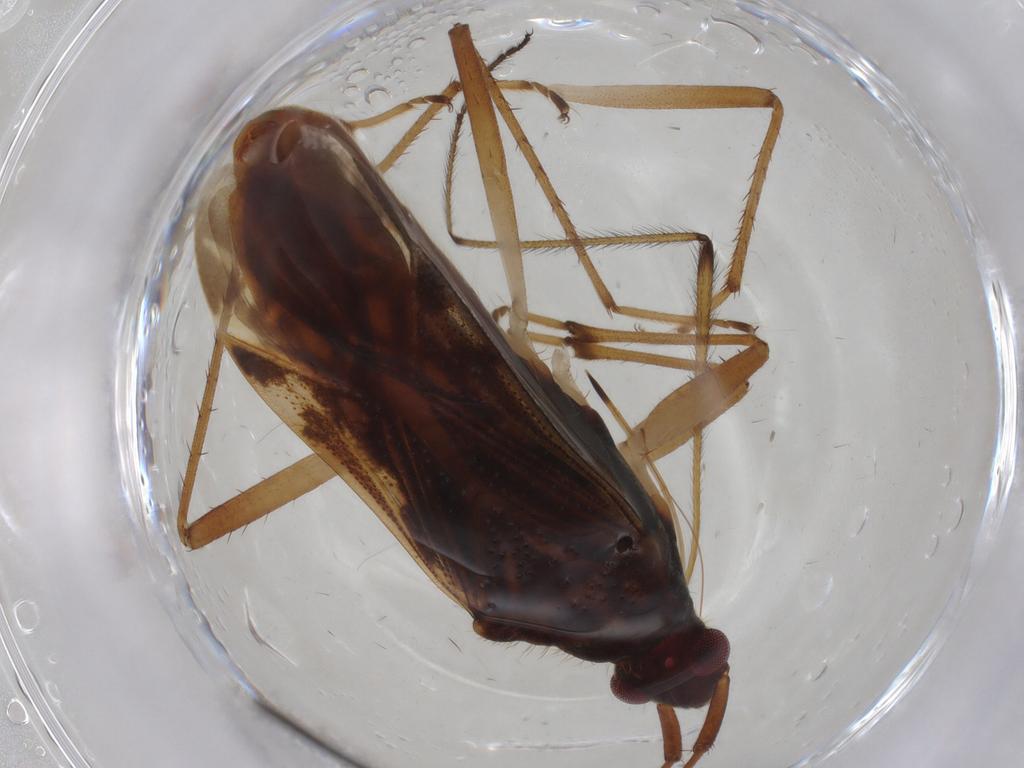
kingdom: Animalia
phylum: Arthropoda
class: Insecta
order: Hemiptera
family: Rhyparochromidae
